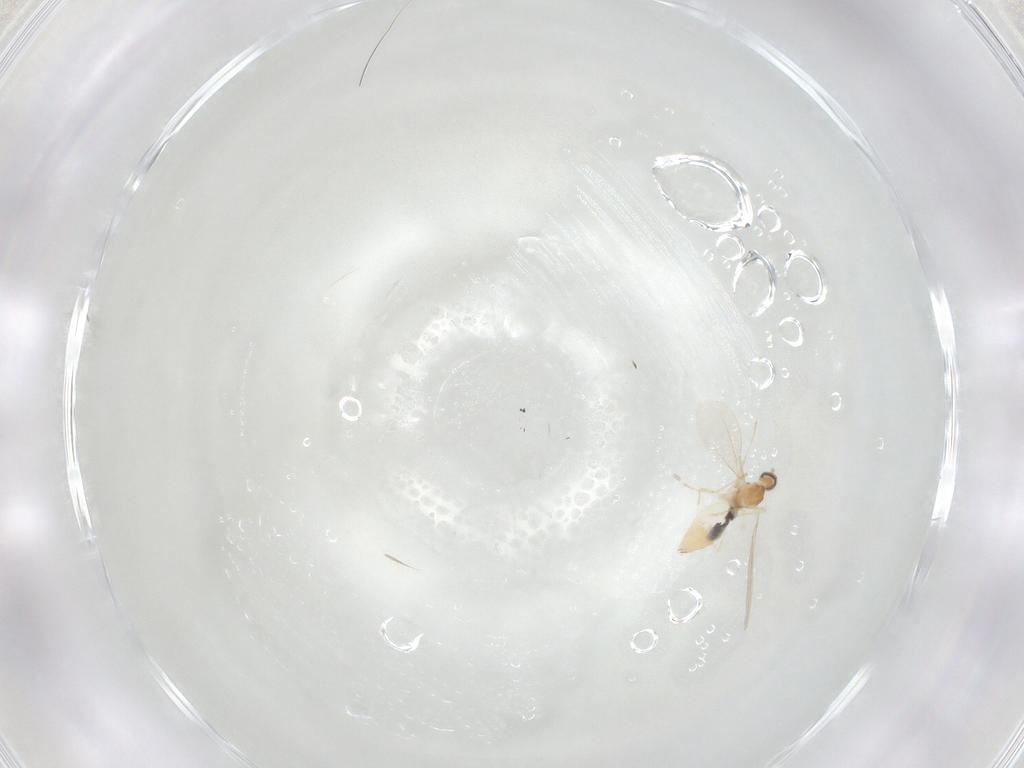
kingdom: Animalia
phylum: Arthropoda
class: Insecta
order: Diptera
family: Cecidomyiidae
